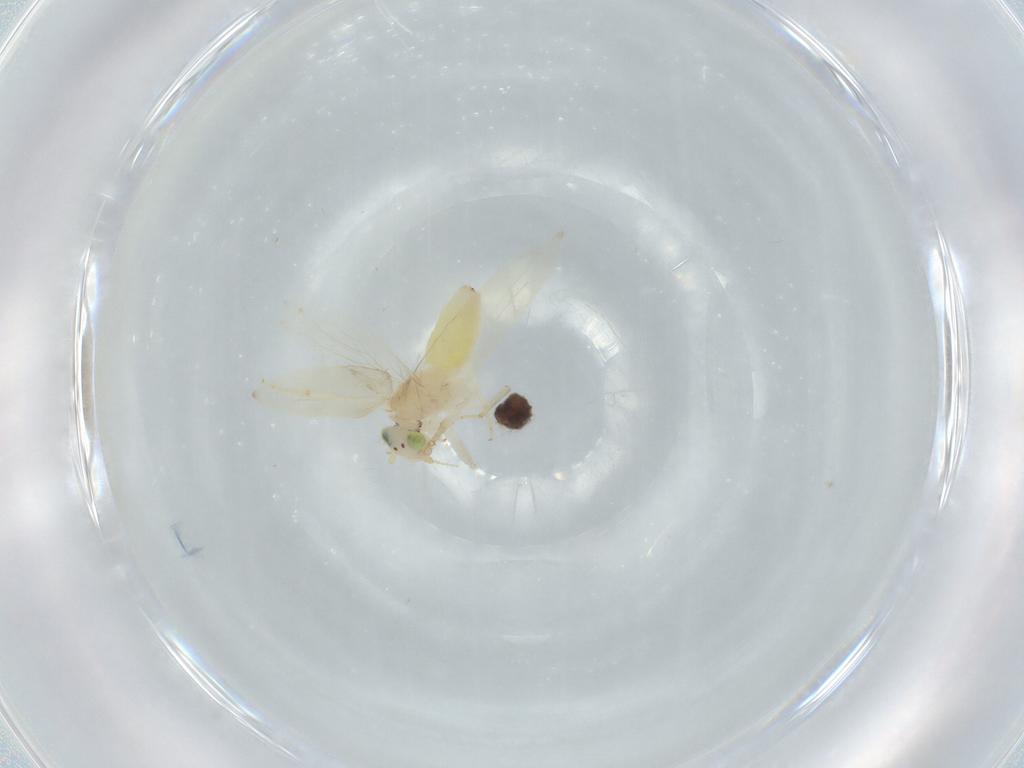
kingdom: Animalia
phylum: Arthropoda
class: Insecta
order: Psocodea
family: Lepidopsocidae
